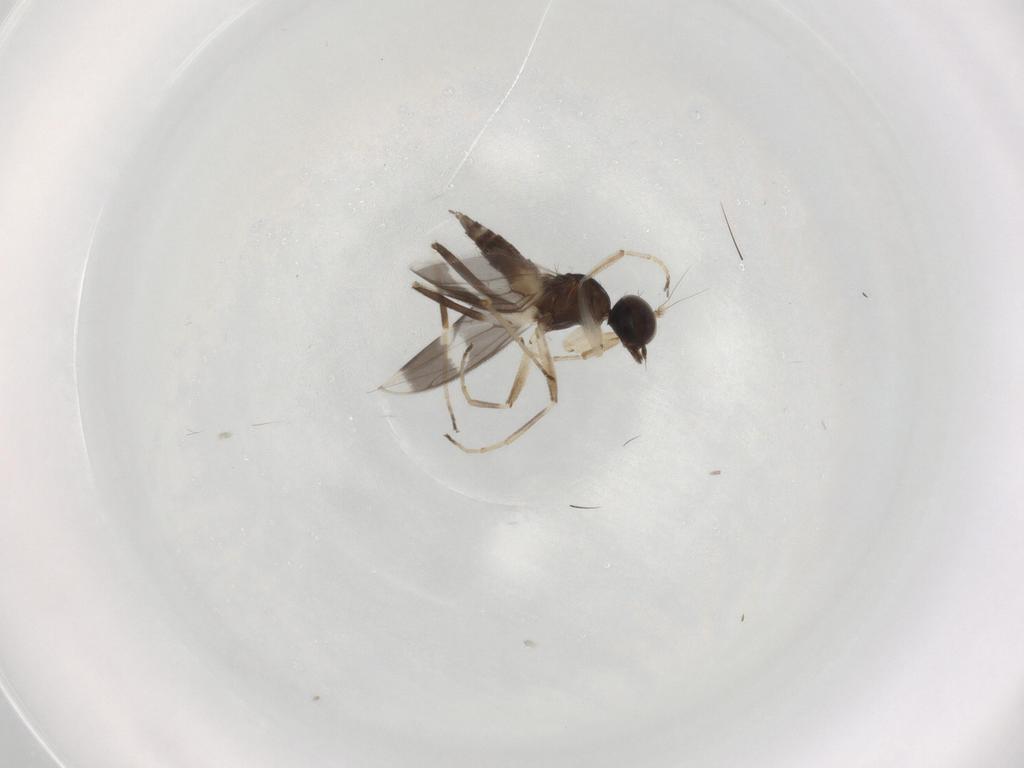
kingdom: Animalia
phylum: Arthropoda
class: Insecta
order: Diptera
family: Hybotidae
